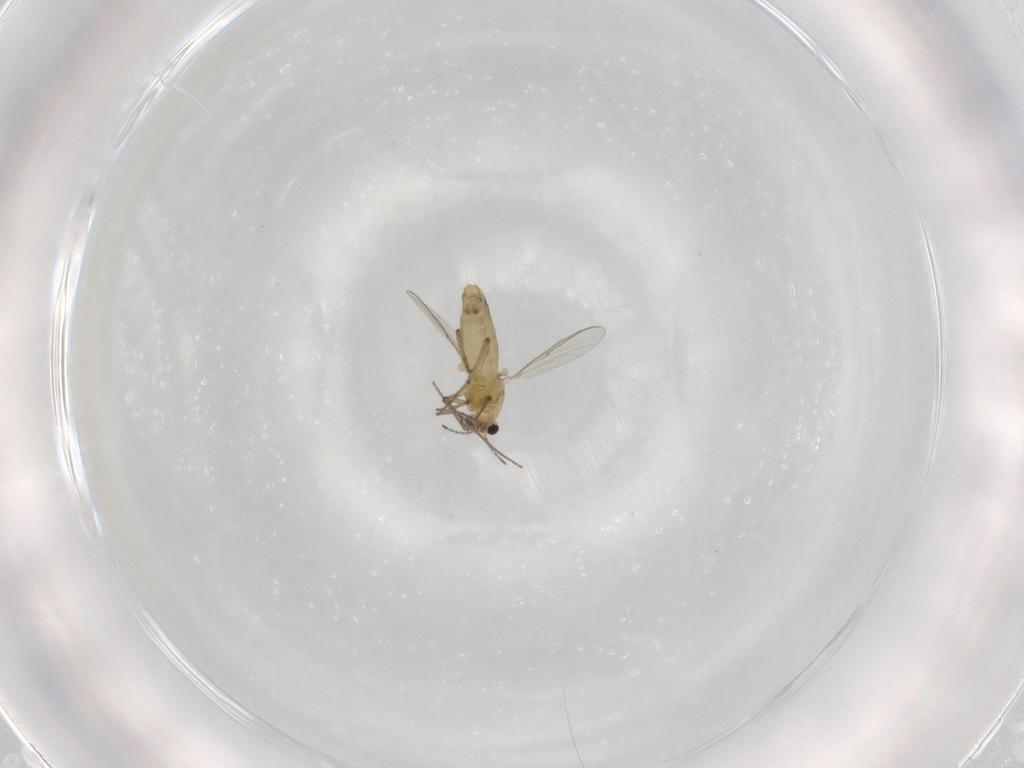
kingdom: Animalia
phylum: Arthropoda
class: Insecta
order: Diptera
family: Chironomidae
